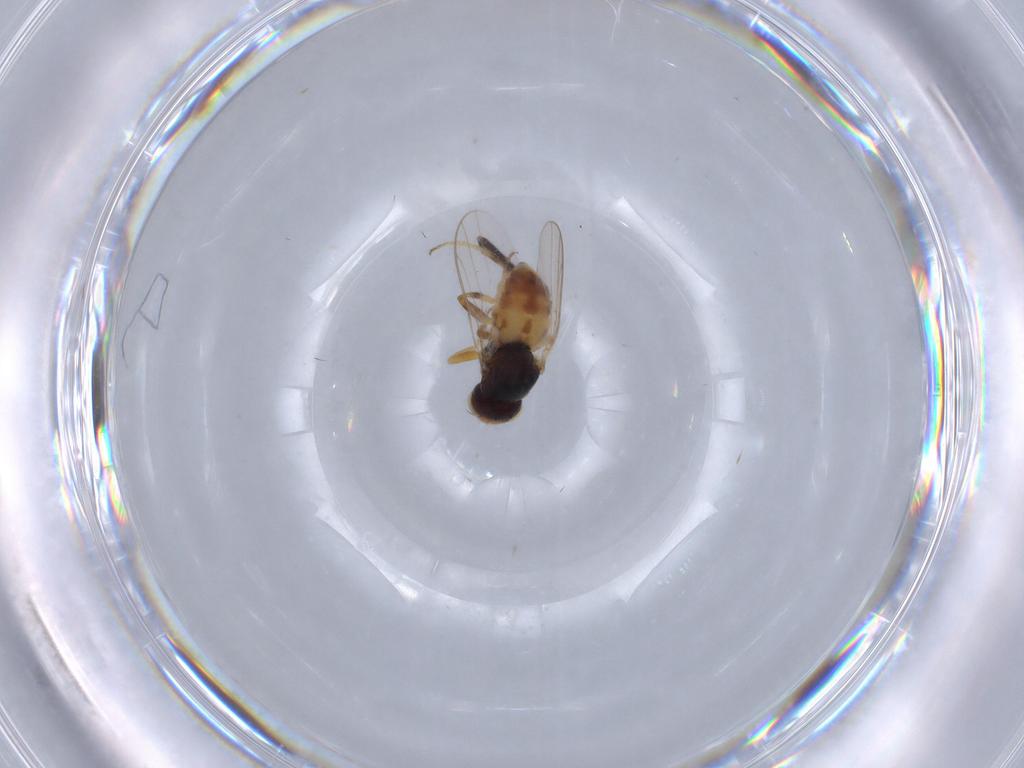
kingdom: Animalia
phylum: Arthropoda
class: Insecta
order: Diptera
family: Chloropidae
